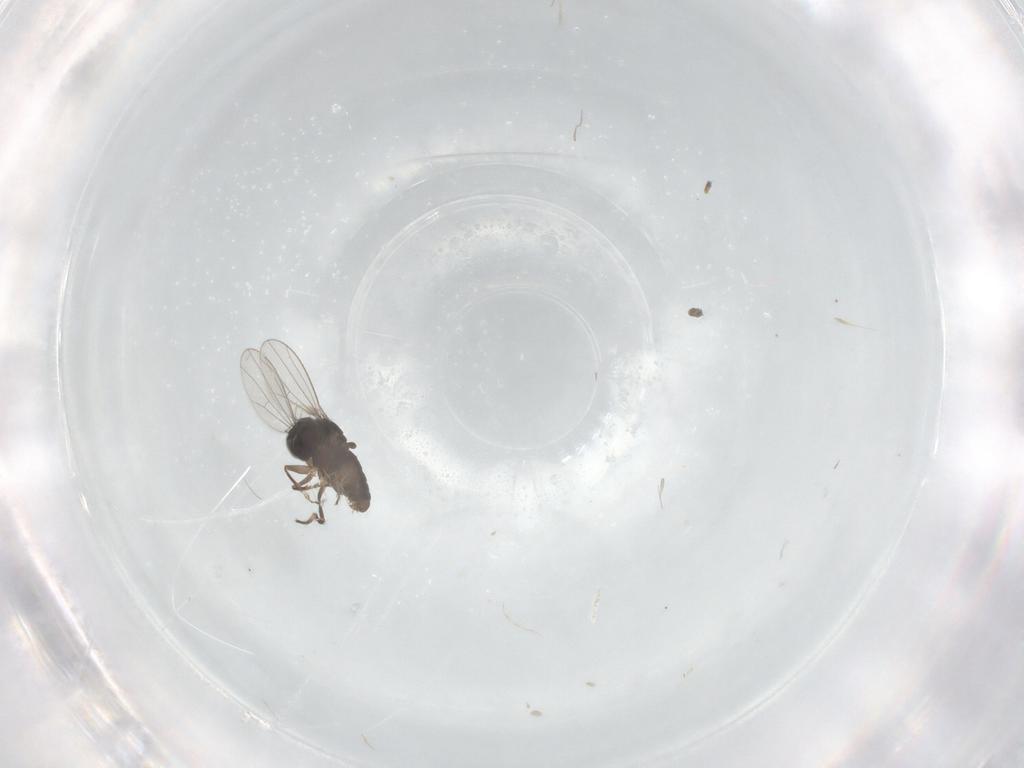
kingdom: Animalia
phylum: Arthropoda
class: Insecta
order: Diptera
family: Dolichopodidae
